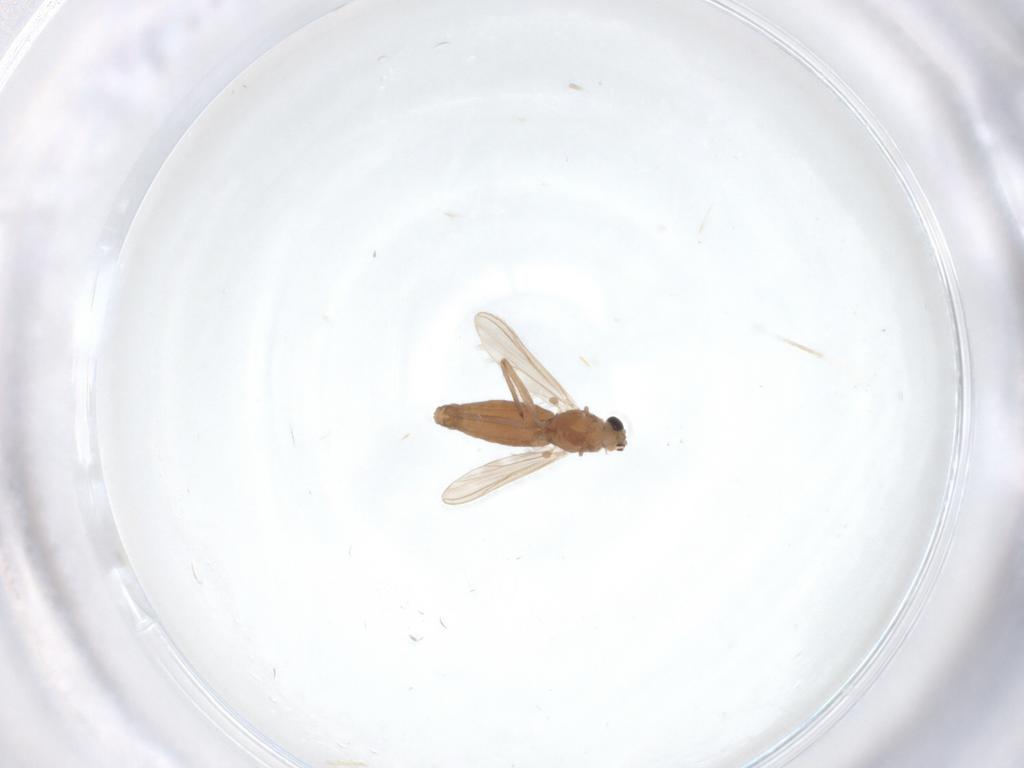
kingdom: Animalia
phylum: Arthropoda
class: Insecta
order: Diptera
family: Chironomidae
